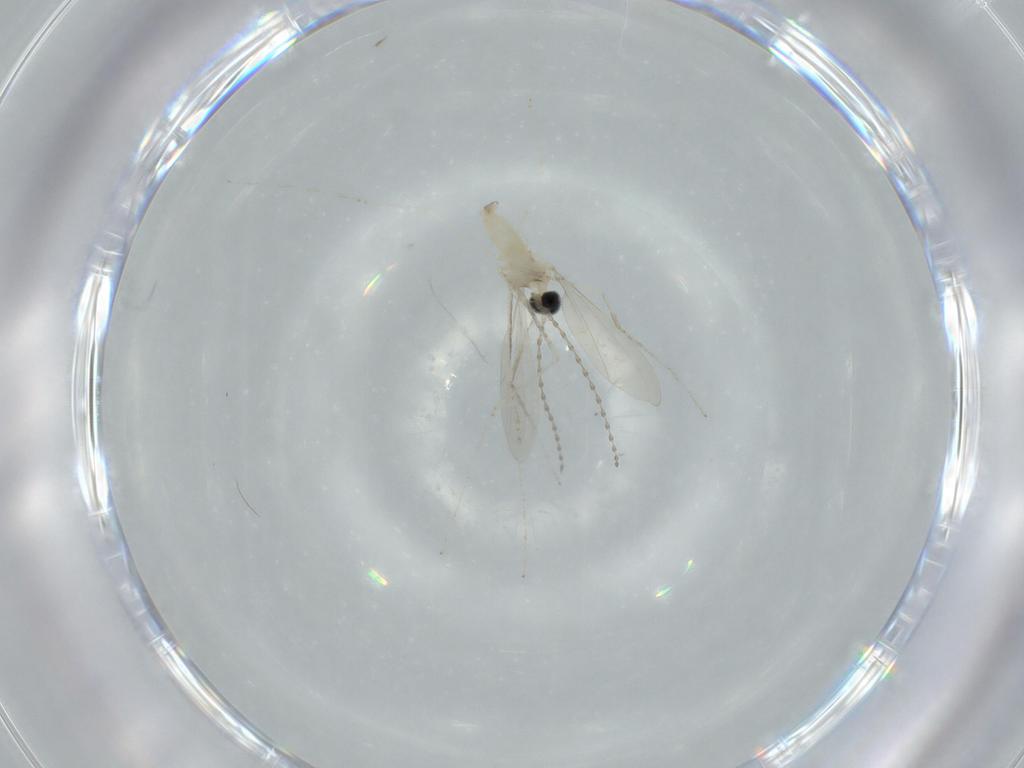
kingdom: Animalia
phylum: Arthropoda
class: Insecta
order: Diptera
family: Cecidomyiidae
